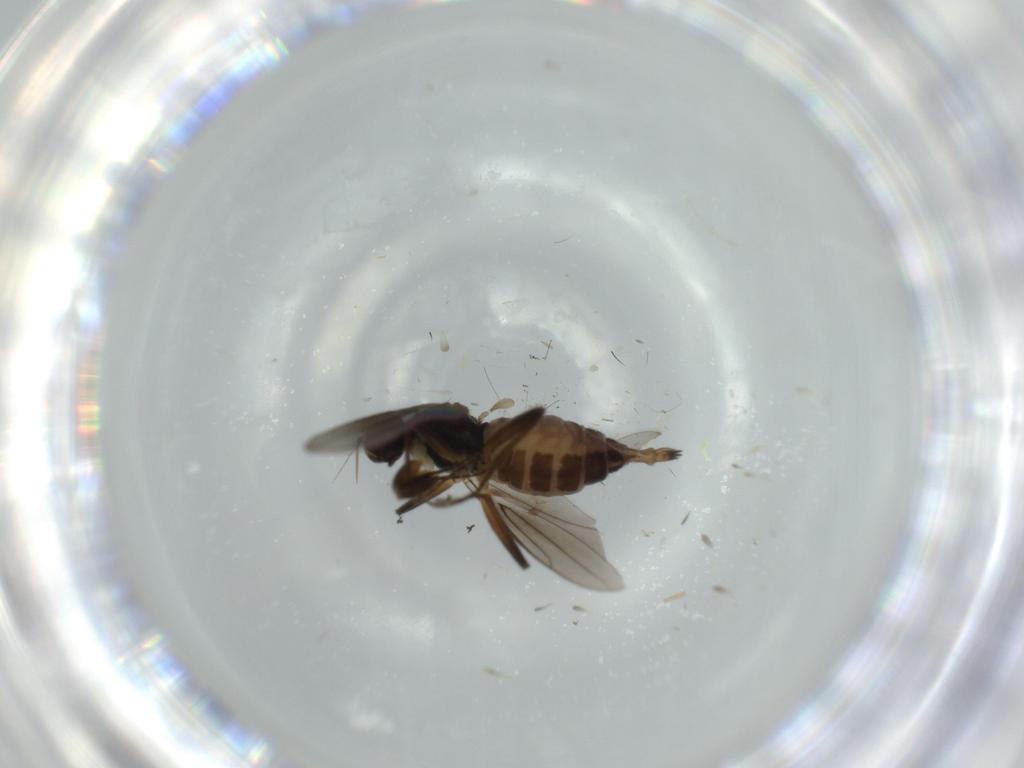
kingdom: Animalia
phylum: Arthropoda
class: Insecta
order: Diptera
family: Hybotidae
